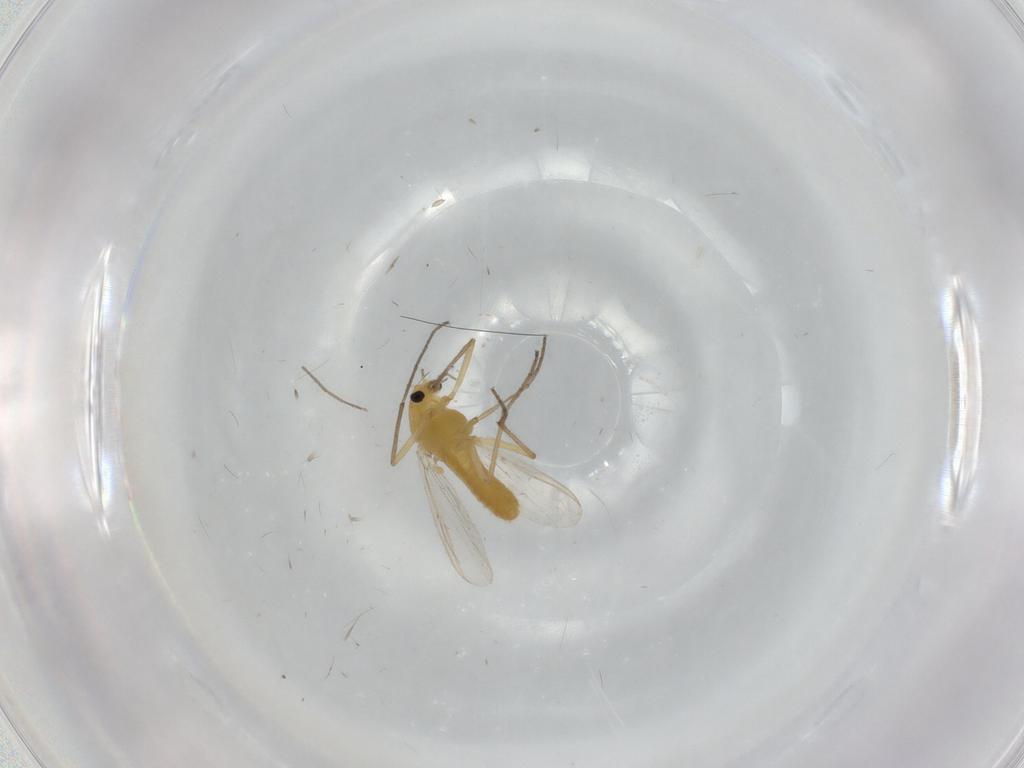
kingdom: Animalia
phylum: Arthropoda
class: Insecta
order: Diptera
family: Chironomidae
